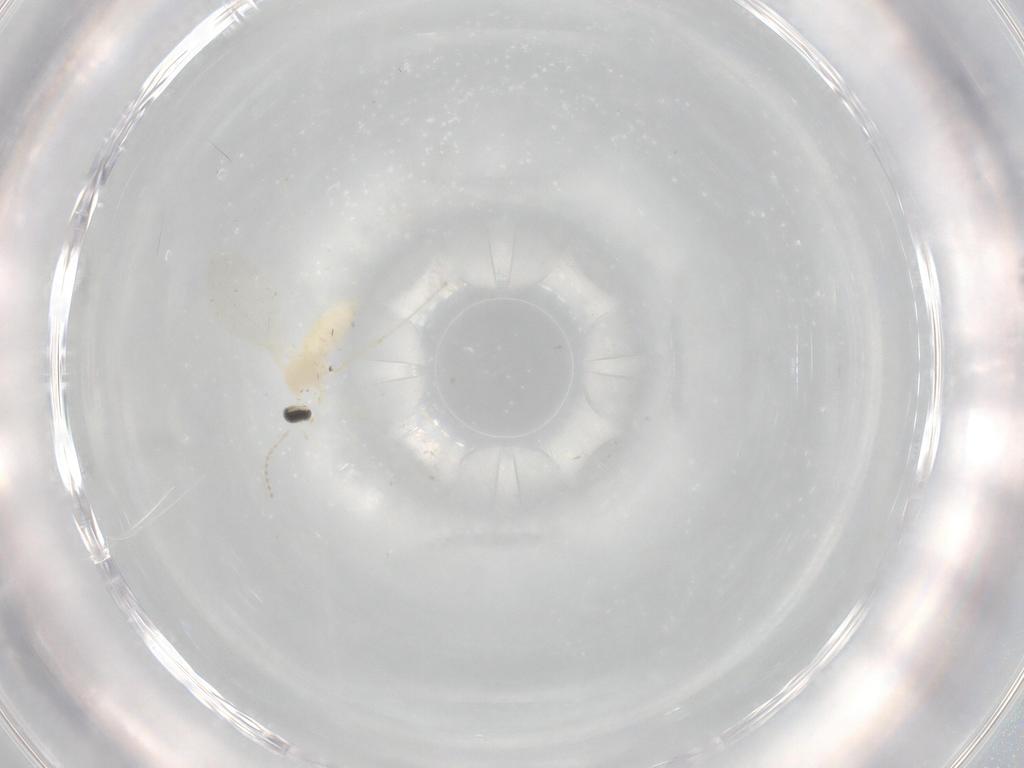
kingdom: Animalia
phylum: Arthropoda
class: Insecta
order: Diptera
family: Cecidomyiidae
